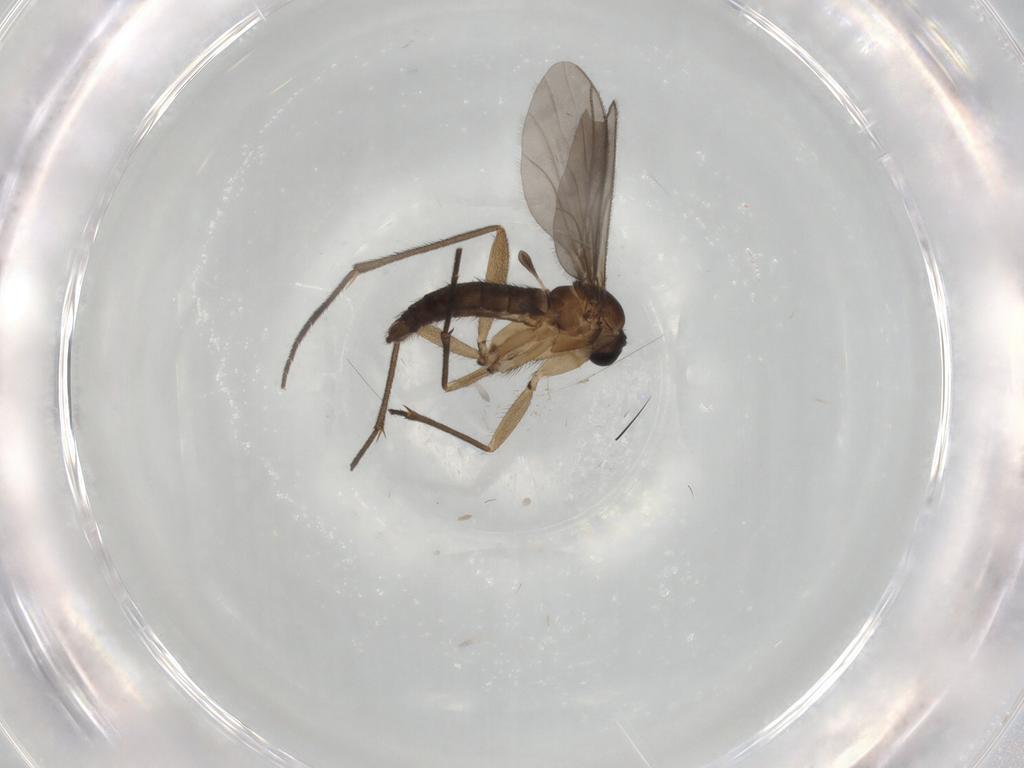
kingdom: Animalia
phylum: Arthropoda
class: Insecta
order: Diptera
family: Sciaridae
